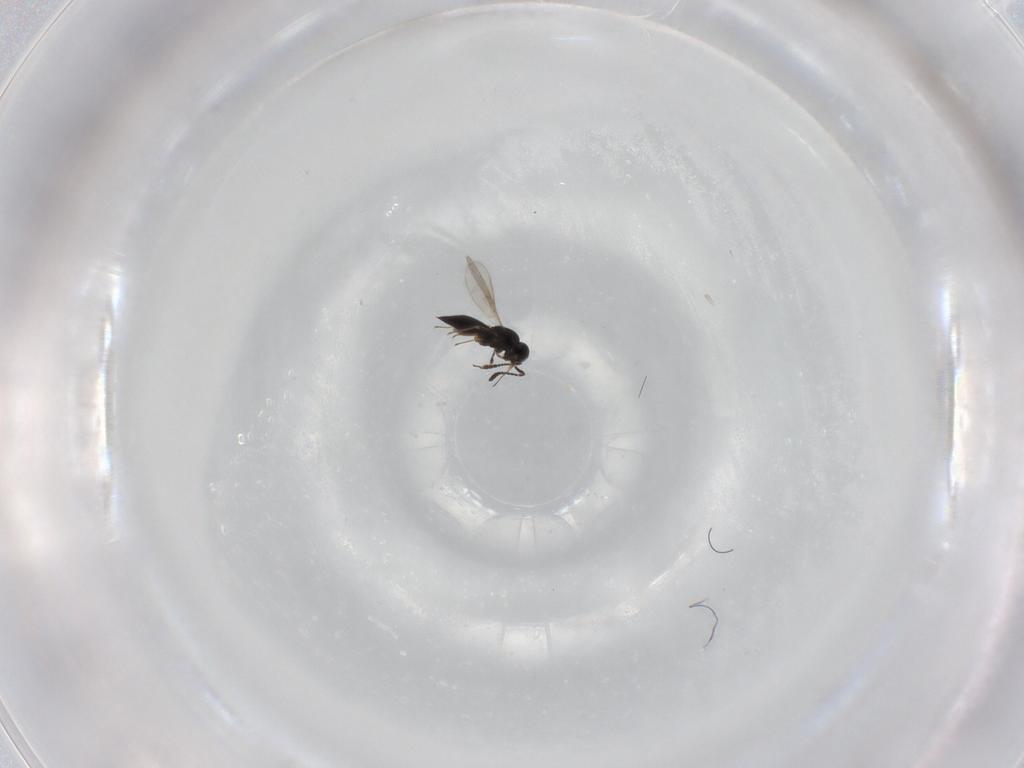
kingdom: Animalia
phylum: Arthropoda
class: Insecta
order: Hymenoptera
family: Scelionidae
